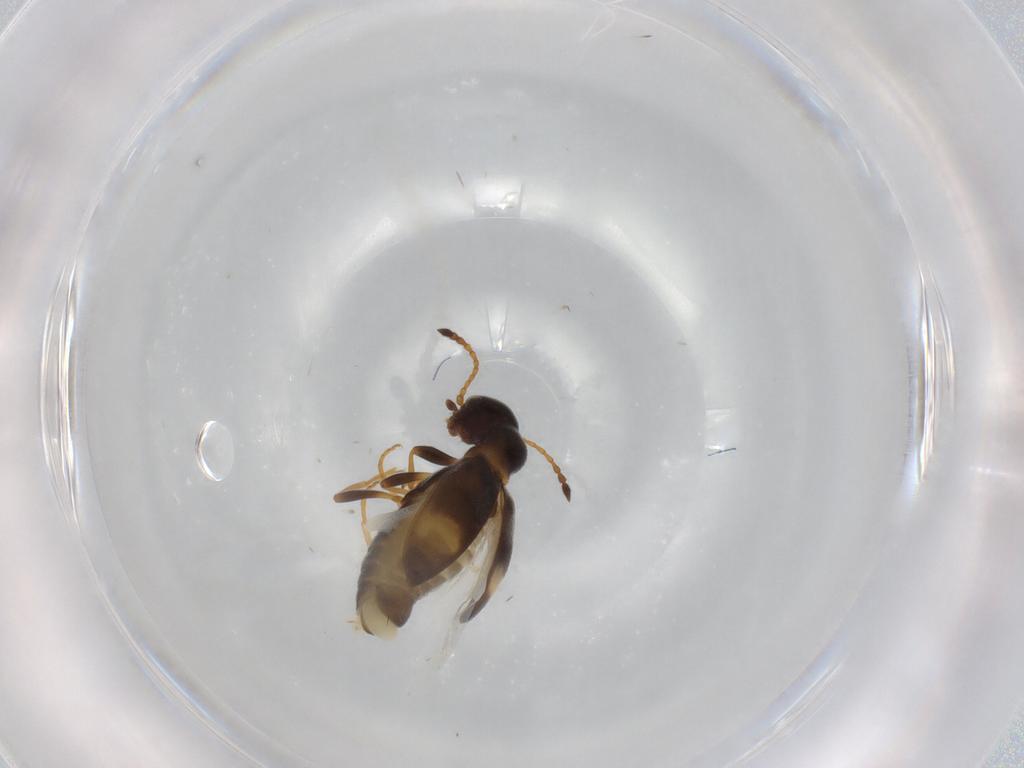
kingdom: Animalia
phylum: Arthropoda
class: Insecta
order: Coleoptera
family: Anthicidae
